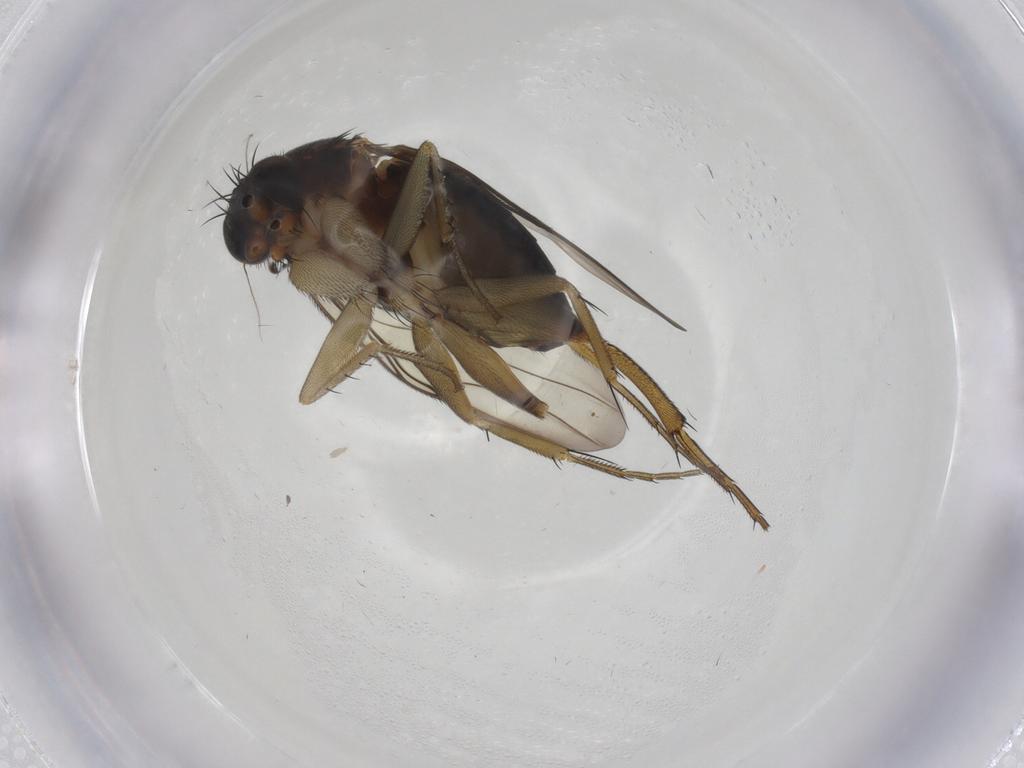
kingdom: Animalia
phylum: Arthropoda
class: Insecta
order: Diptera
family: Phoridae
